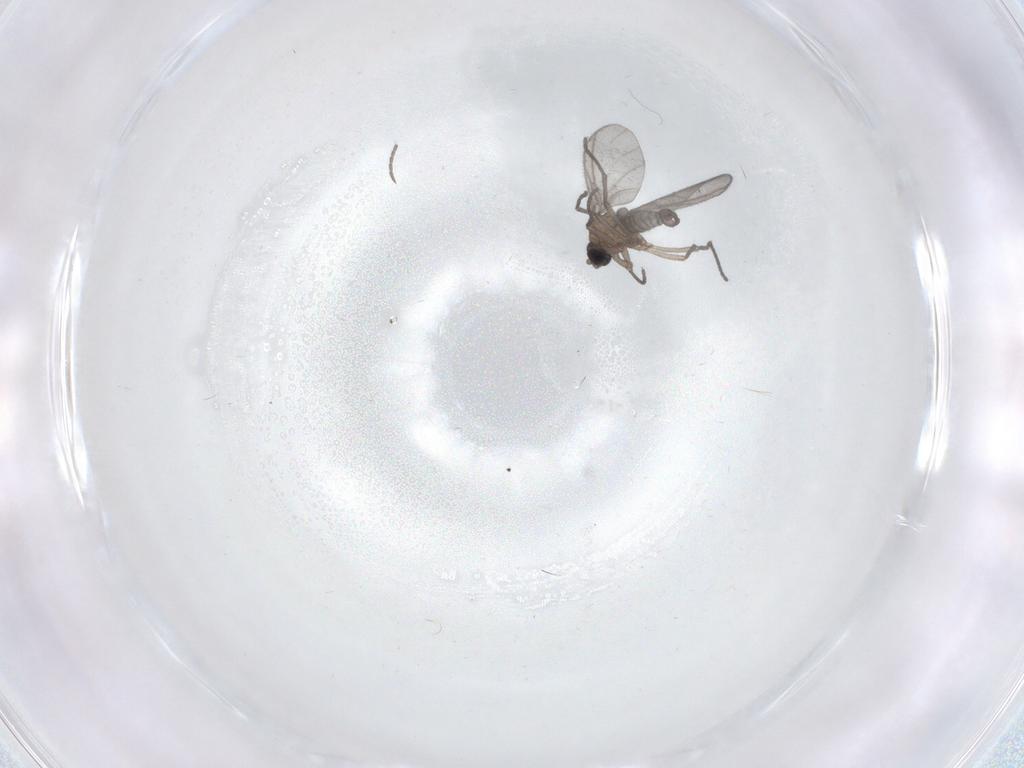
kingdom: Animalia
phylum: Arthropoda
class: Insecta
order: Diptera
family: Sciaridae
